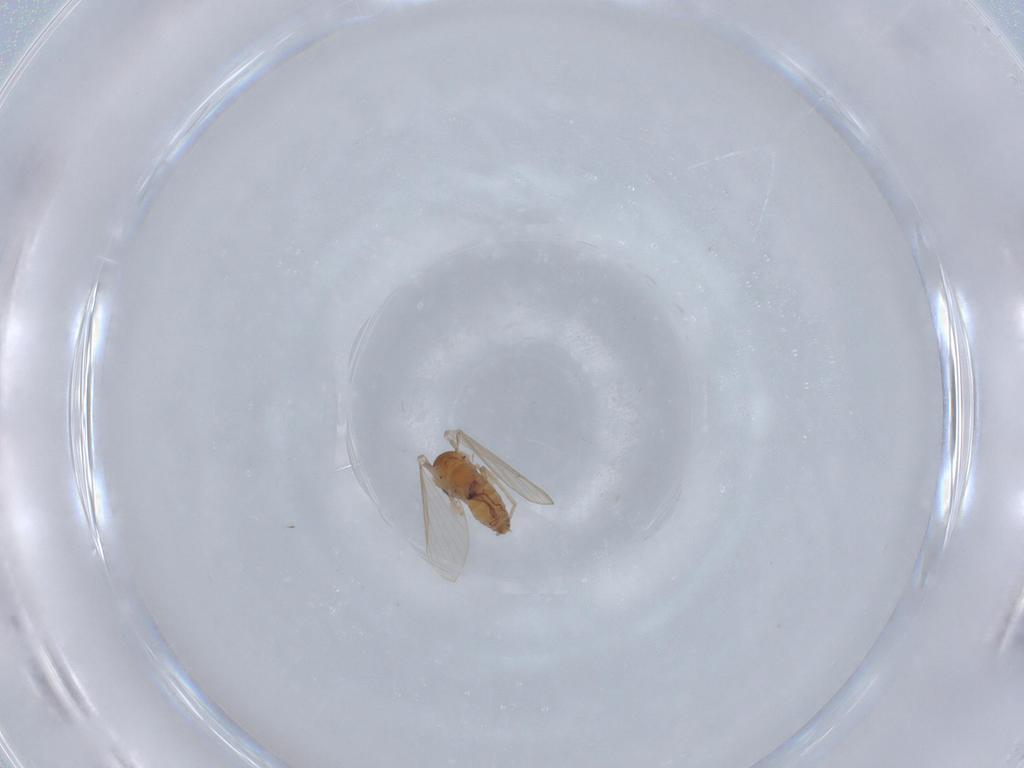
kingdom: Animalia
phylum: Arthropoda
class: Insecta
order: Diptera
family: Psychodidae
